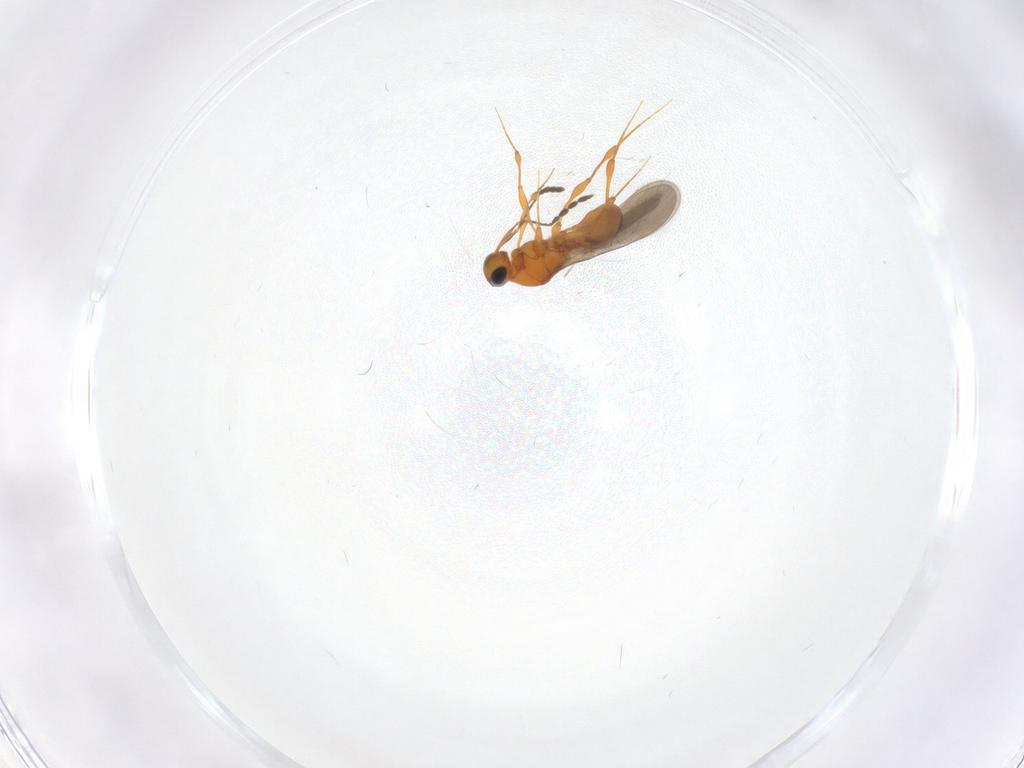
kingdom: Animalia
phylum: Arthropoda
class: Insecta
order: Hymenoptera
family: Platygastridae
